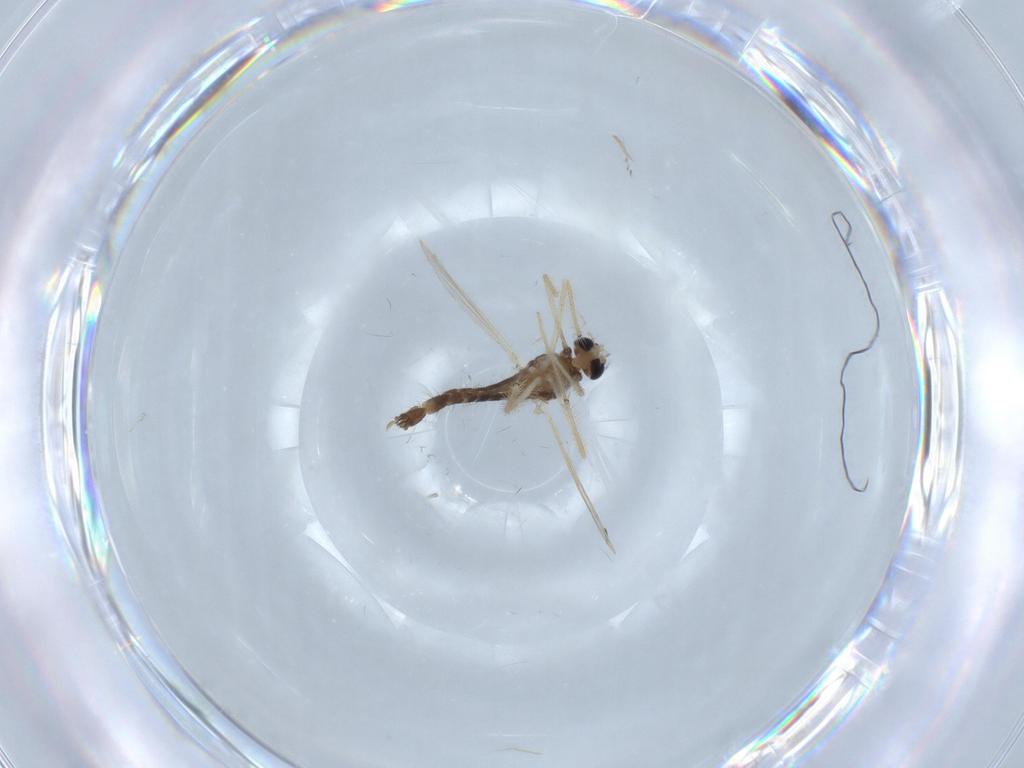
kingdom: Animalia
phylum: Arthropoda
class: Insecta
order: Diptera
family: Chironomidae
